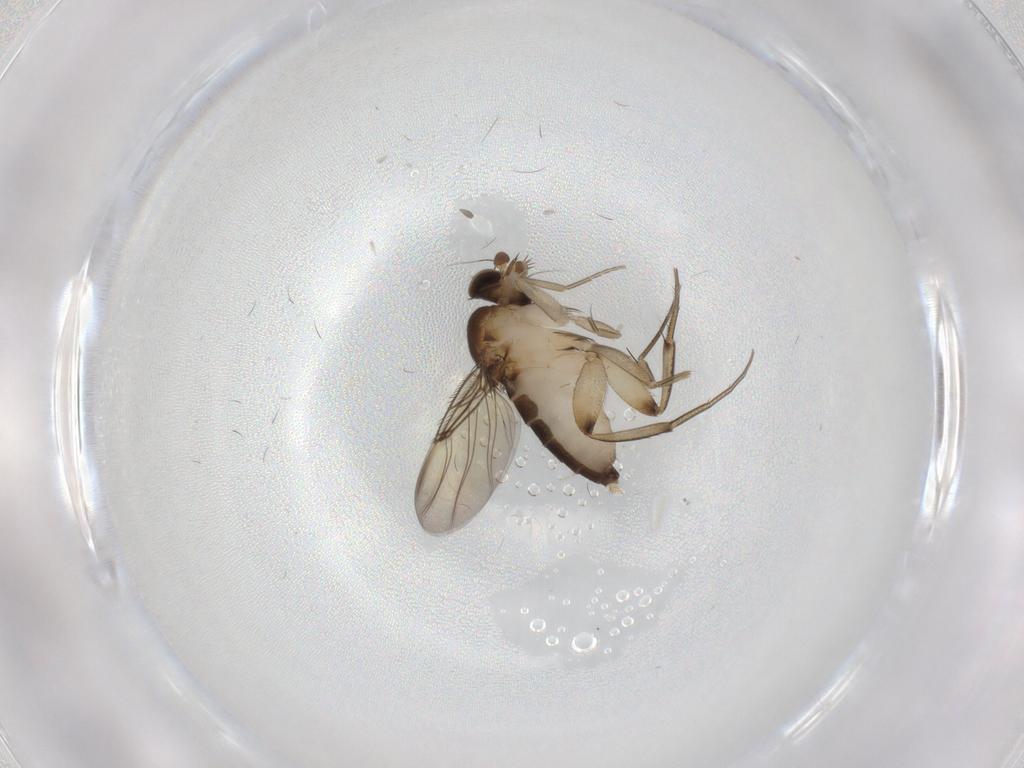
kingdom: Animalia
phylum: Arthropoda
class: Insecta
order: Diptera
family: Phoridae
